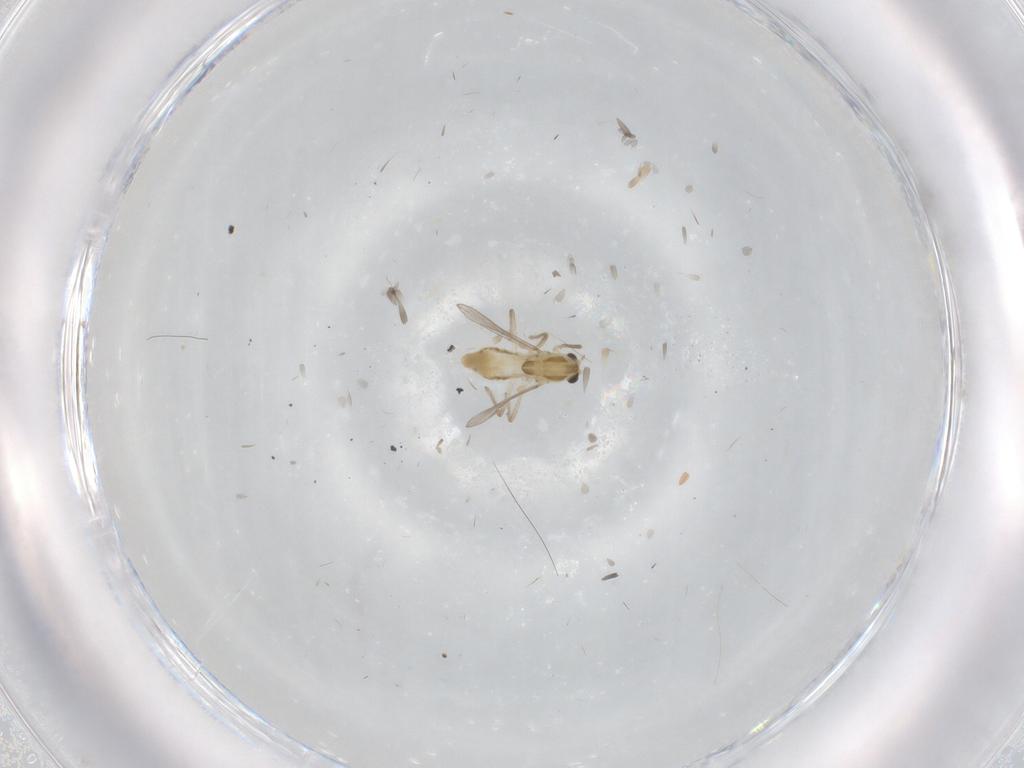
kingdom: Animalia
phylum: Arthropoda
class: Insecta
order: Diptera
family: Chironomidae
